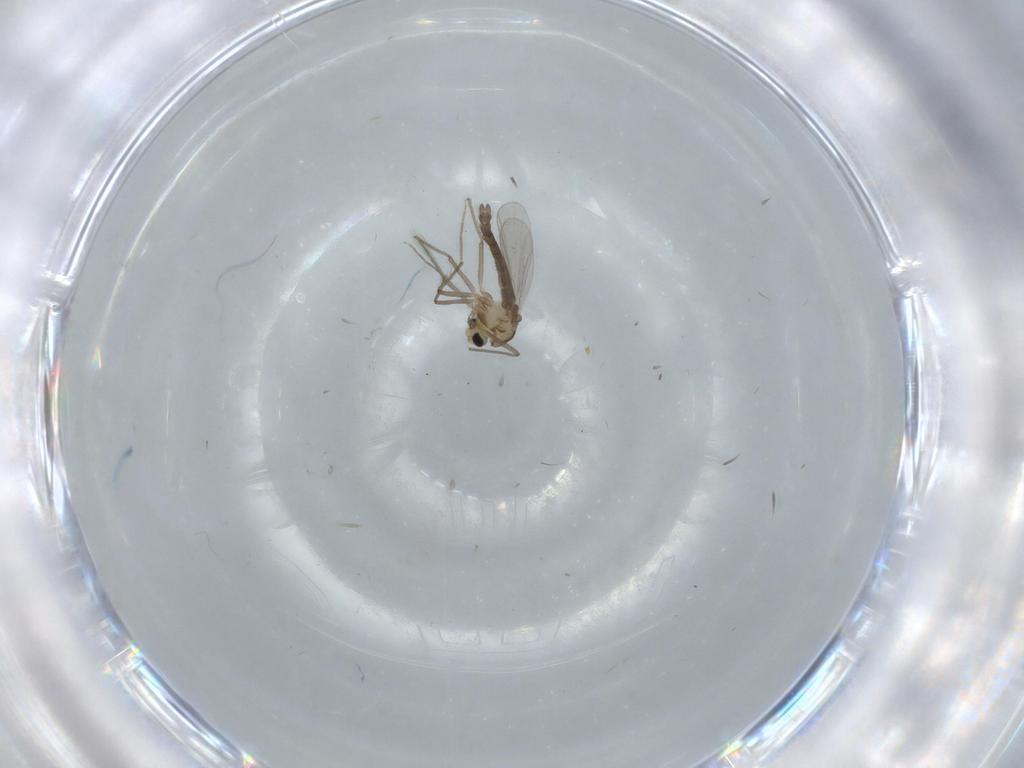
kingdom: Animalia
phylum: Arthropoda
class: Insecta
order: Diptera
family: Chironomidae
